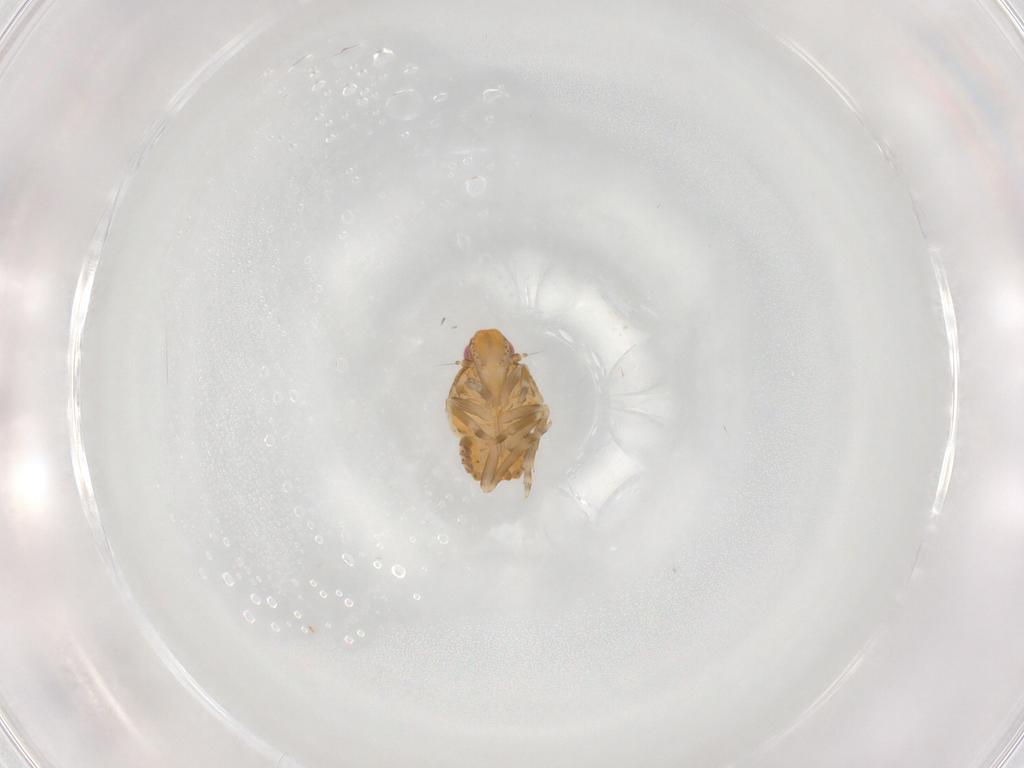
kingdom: Animalia
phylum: Arthropoda
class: Insecta
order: Hemiptera
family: Flatidae
